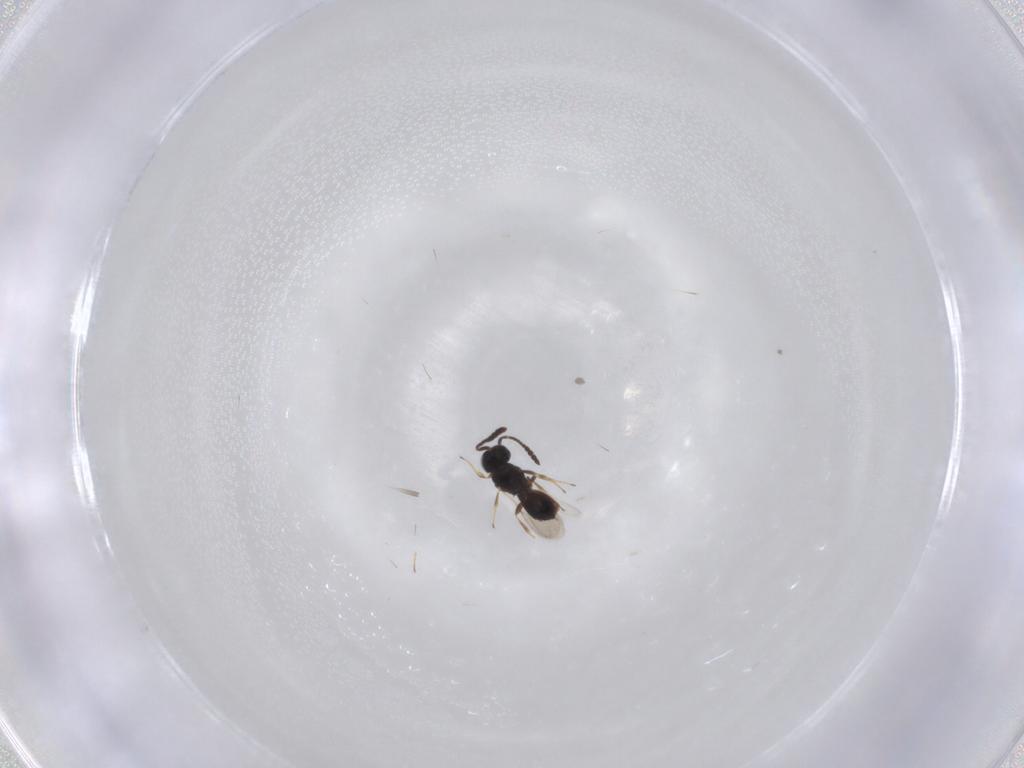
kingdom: Animalia
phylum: Arthropoda
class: Insecta
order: Hymenoptera
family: Scelionidae
